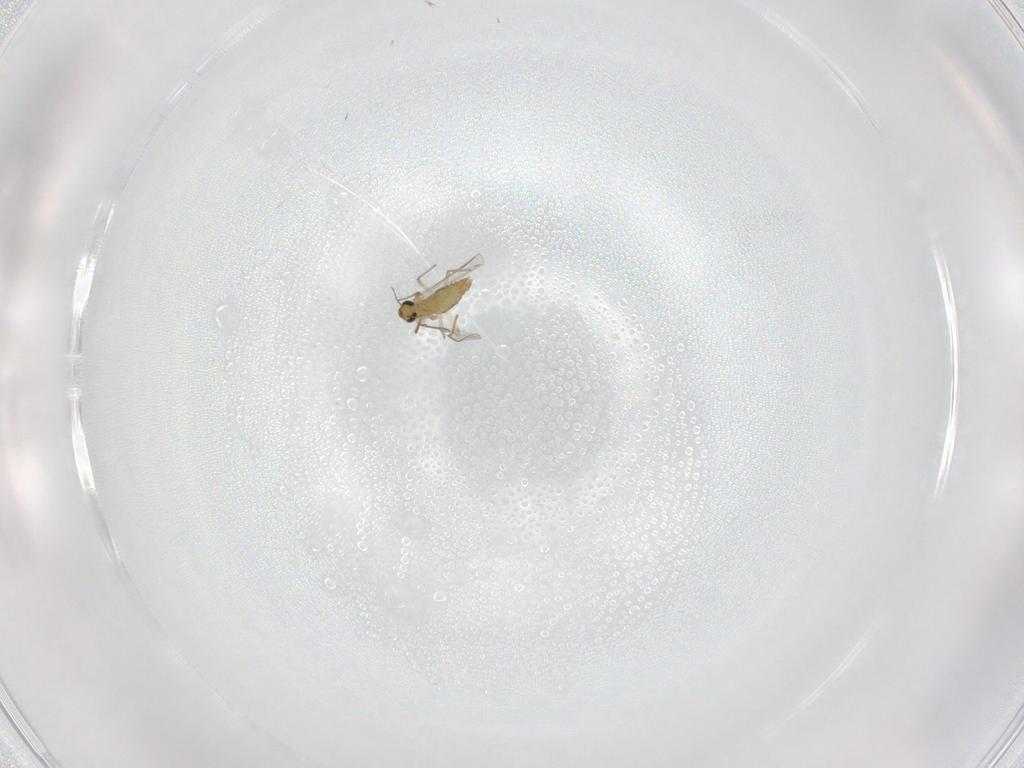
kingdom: Animalia
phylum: Arthropoda
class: Insecta
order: Diptera
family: Chironomidae
